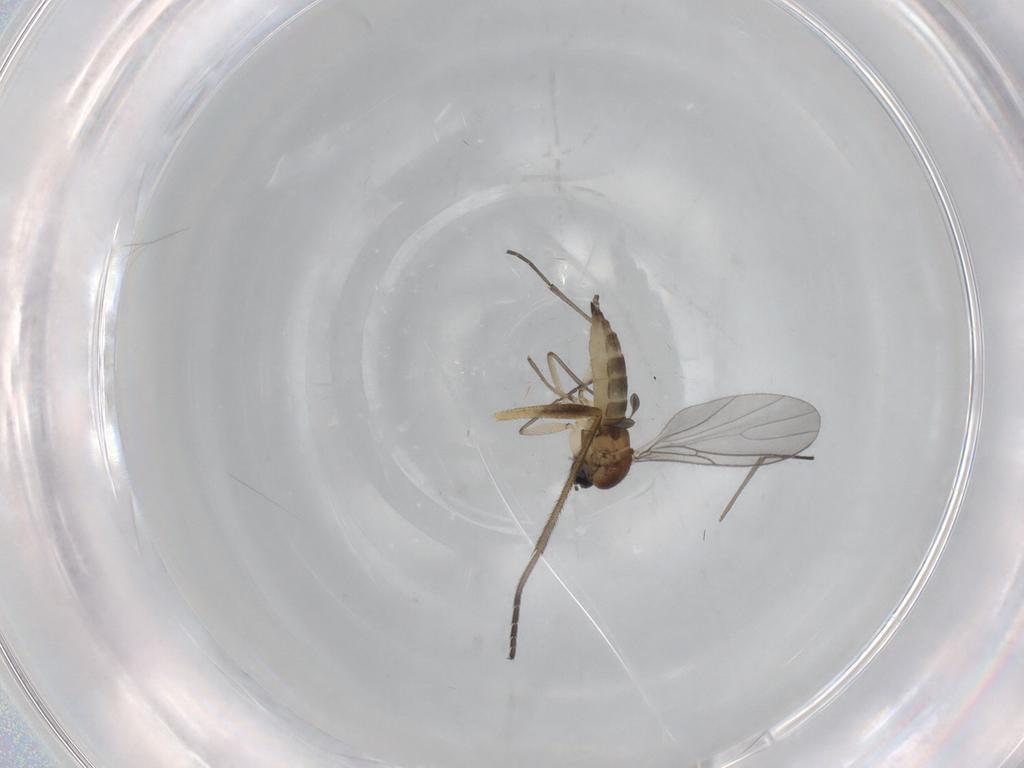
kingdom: Animalia
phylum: Arthropoda
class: Insecta
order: Diptera
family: Sciaridae
